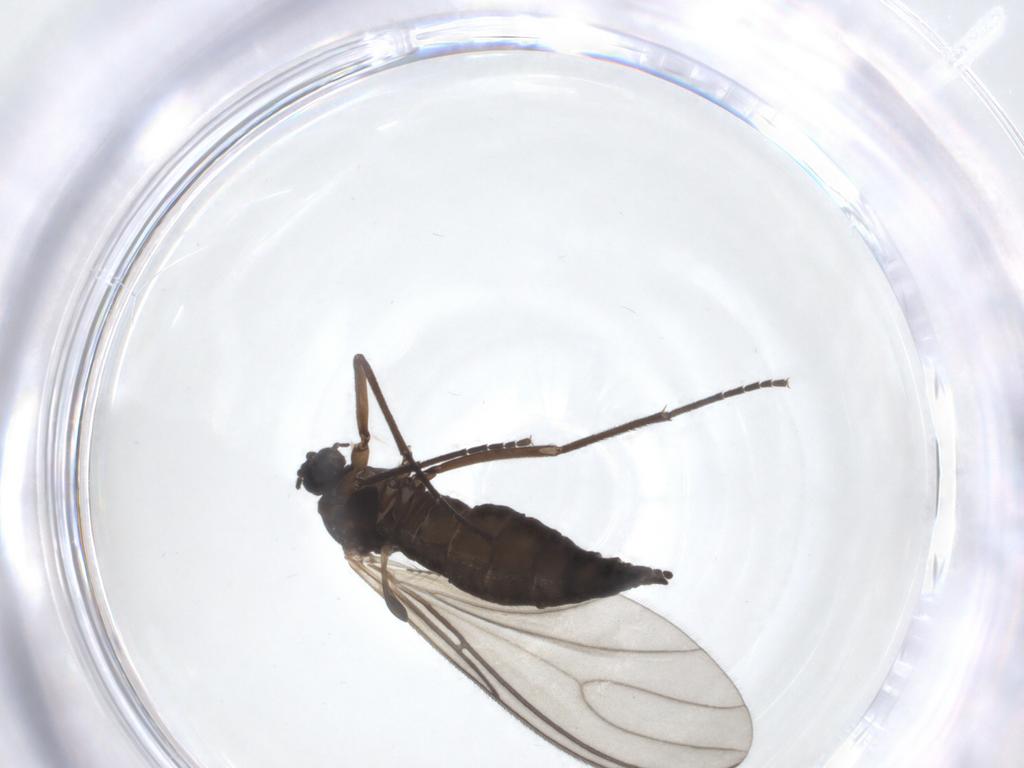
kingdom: Animalia
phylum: Arthropoda
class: Insecta
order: Diptera
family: Sciaridae
